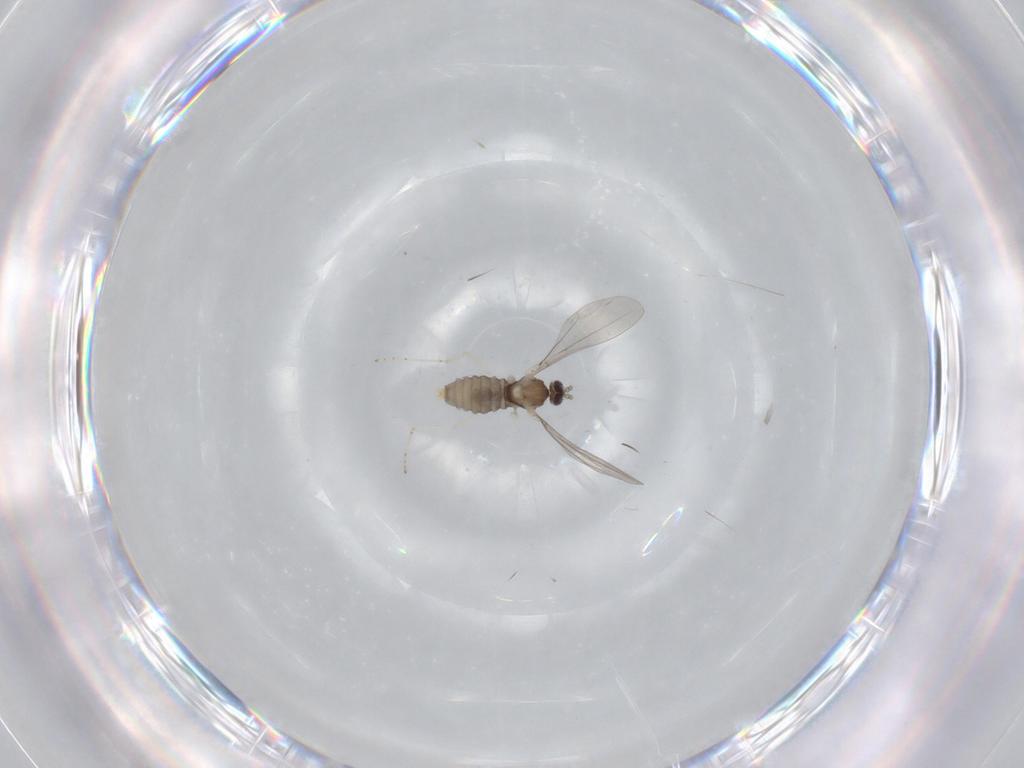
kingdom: Animalia
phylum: Arthropoda
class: Insecta
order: Diptera
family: Cecidomyiidae
